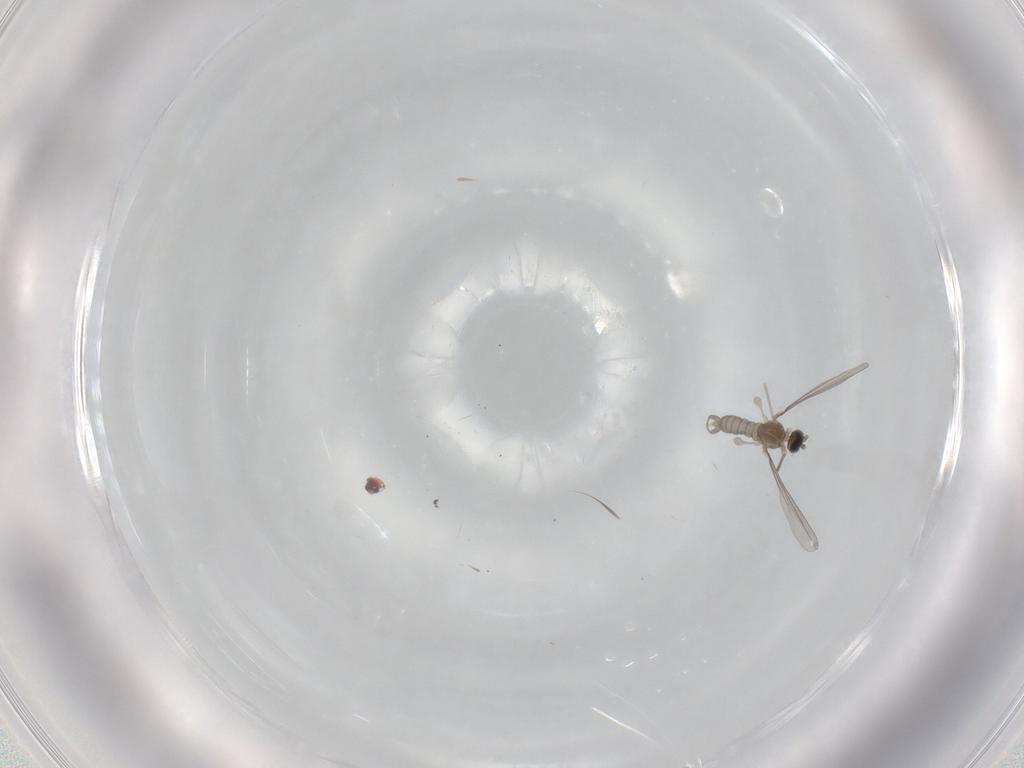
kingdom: Animalia
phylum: Arthropoda
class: Insecta
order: Diptera
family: Cecidomyiidae
